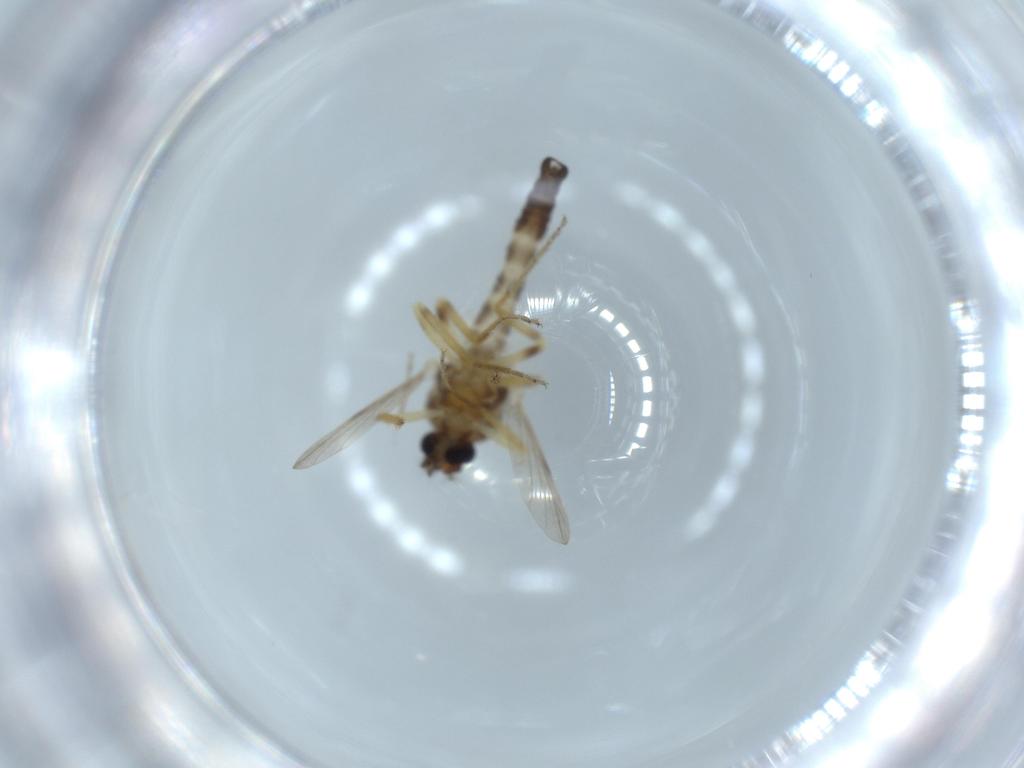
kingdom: Animalia
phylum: Arthropoda
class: Insecta
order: Diptera
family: Ceratopogonidae
